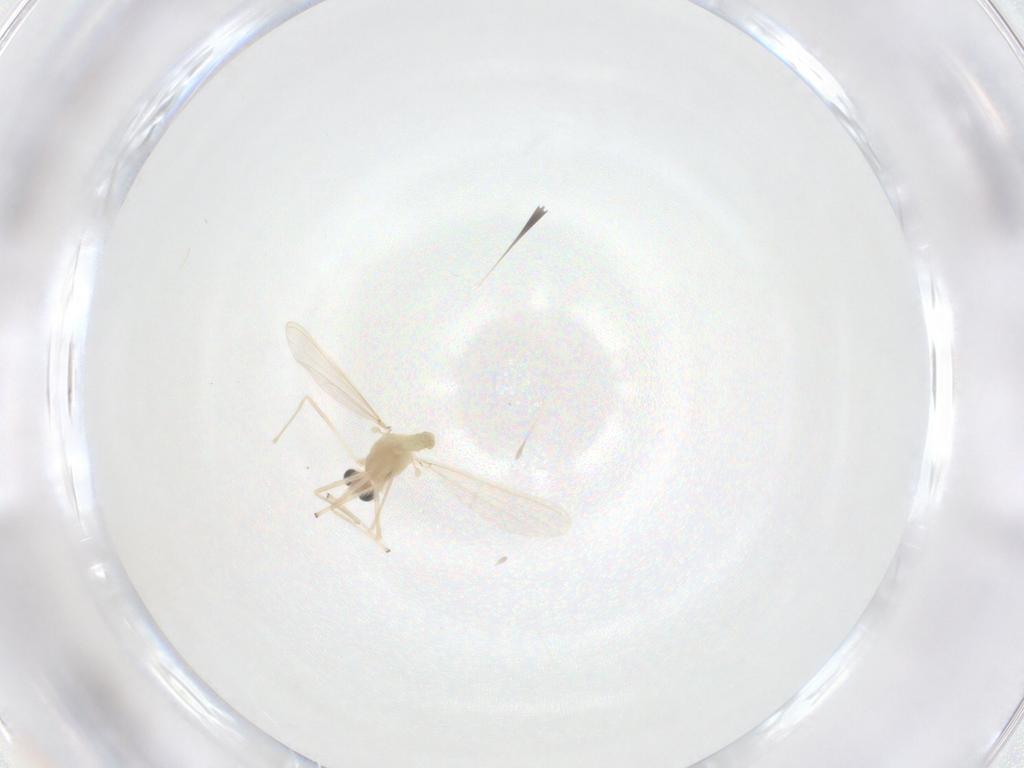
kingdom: Animalia
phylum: Arthropoda
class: Insecta
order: Diptera
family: Chironomidae
